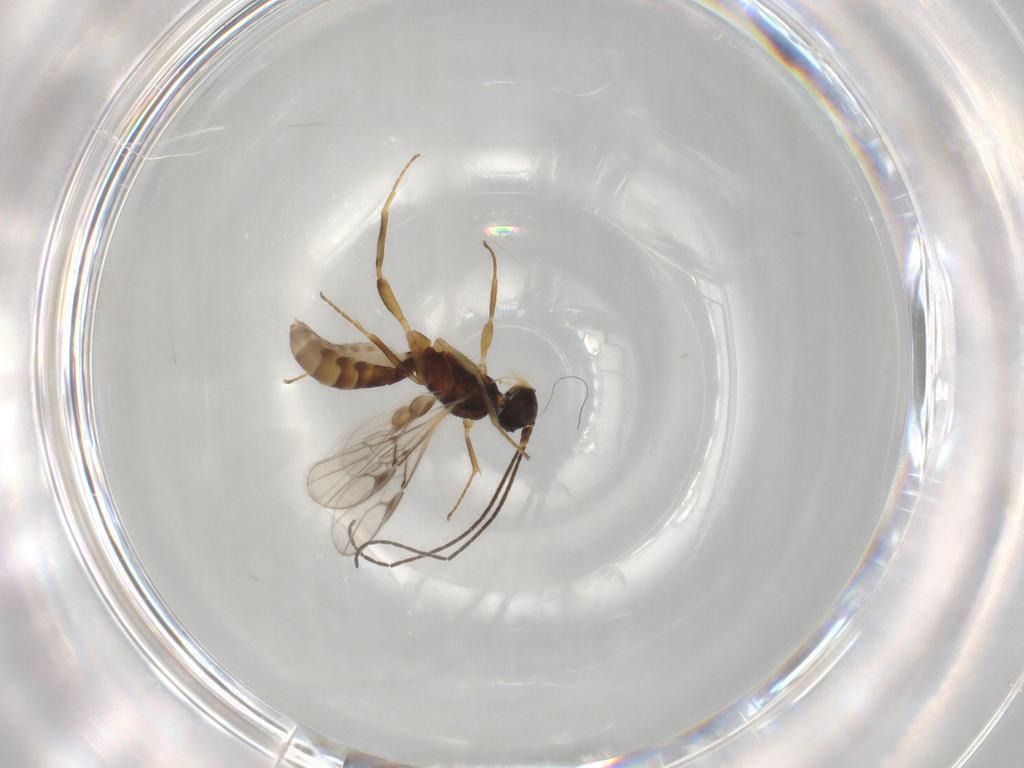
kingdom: Animalia
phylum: Arthropoda
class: Insecta
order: Hymenoptera
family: Braconidae
